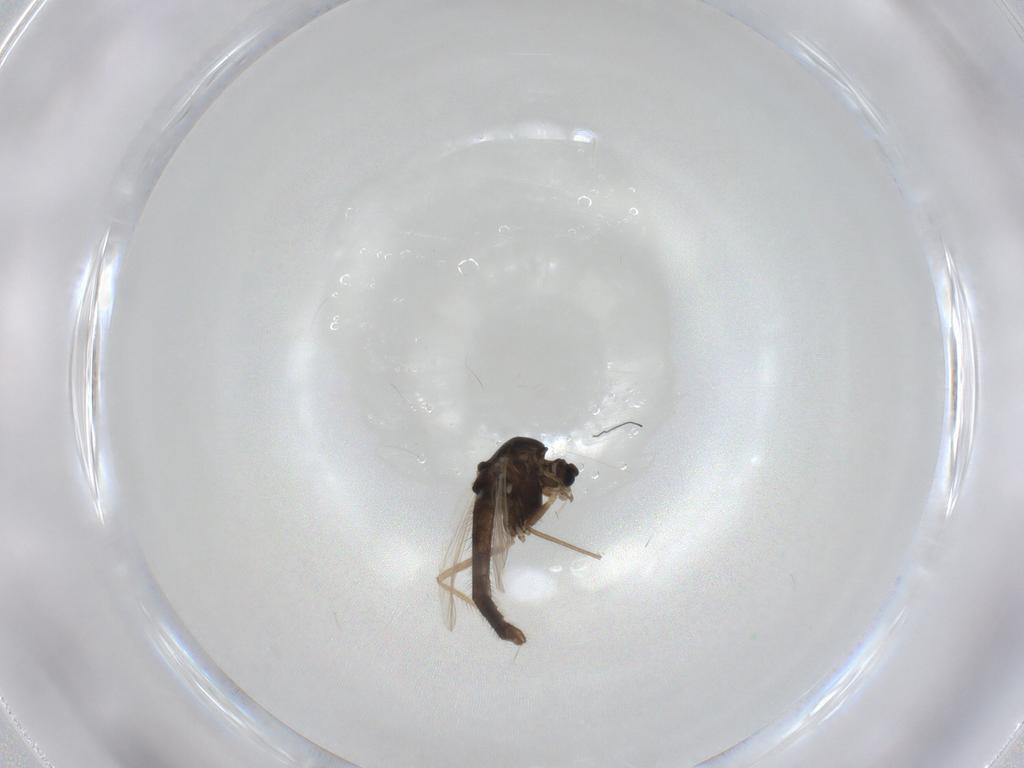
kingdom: Animalia
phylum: Arthropoda
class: Insecta
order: Diptera
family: Chironomidae
